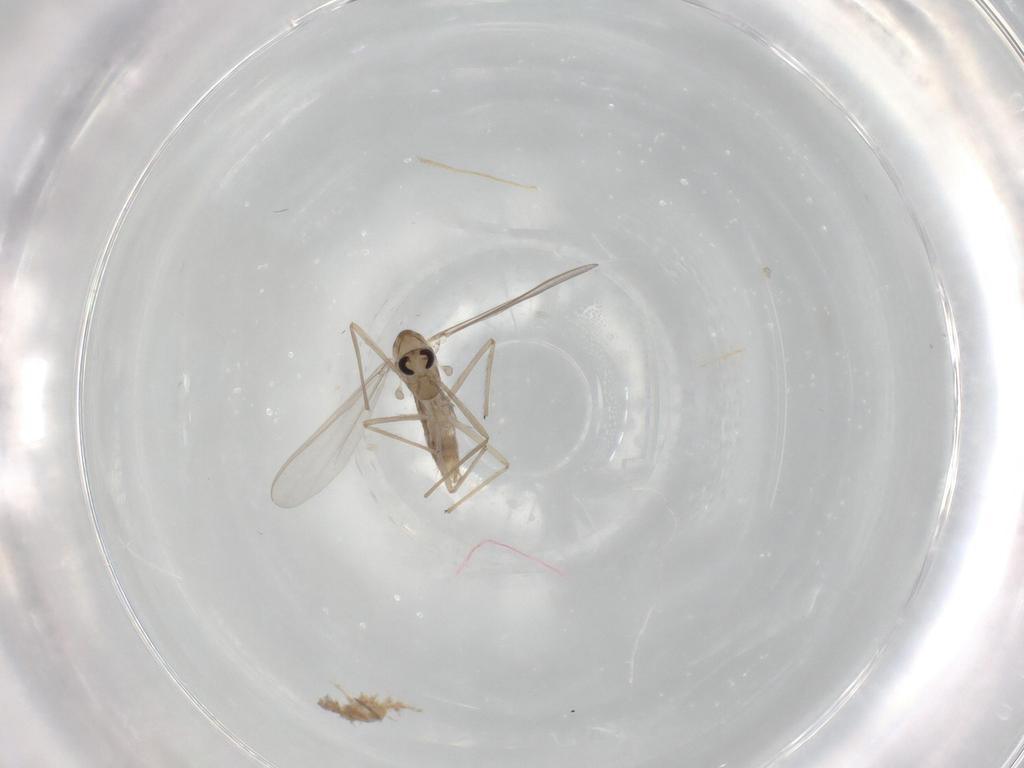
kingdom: Animalia
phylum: Arthropoda
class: Insecta
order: Diptera
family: Chironomidae
